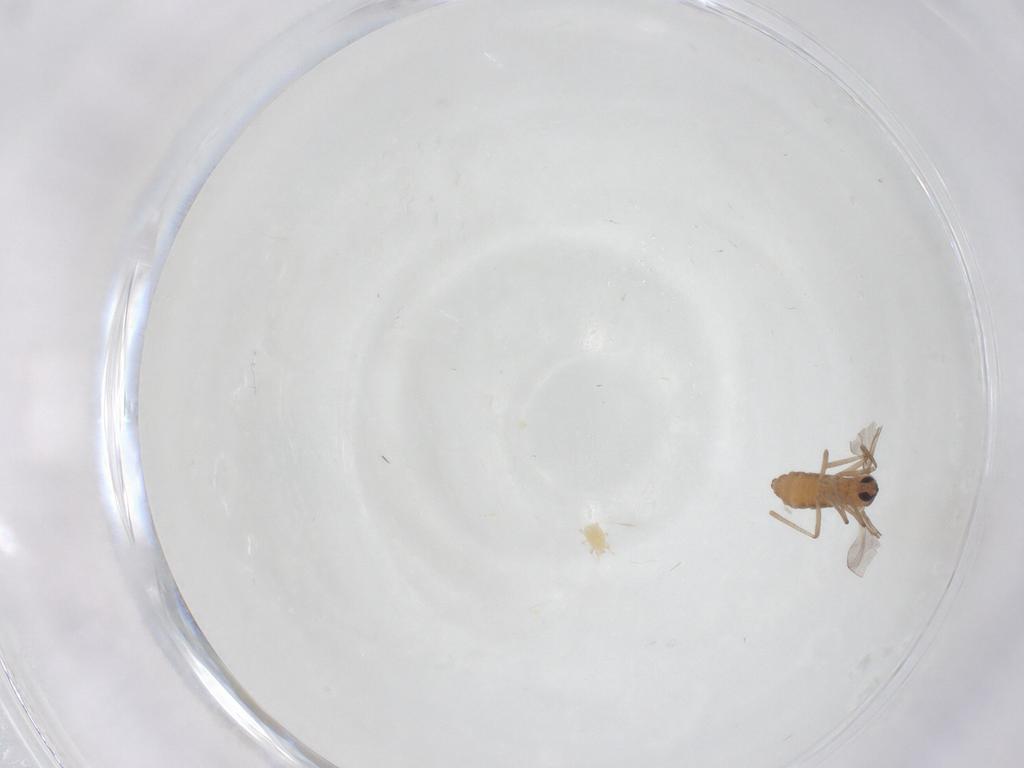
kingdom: Animalia
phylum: Arthropoda
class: Insecta
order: Diptera
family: Cecidomyiidae
